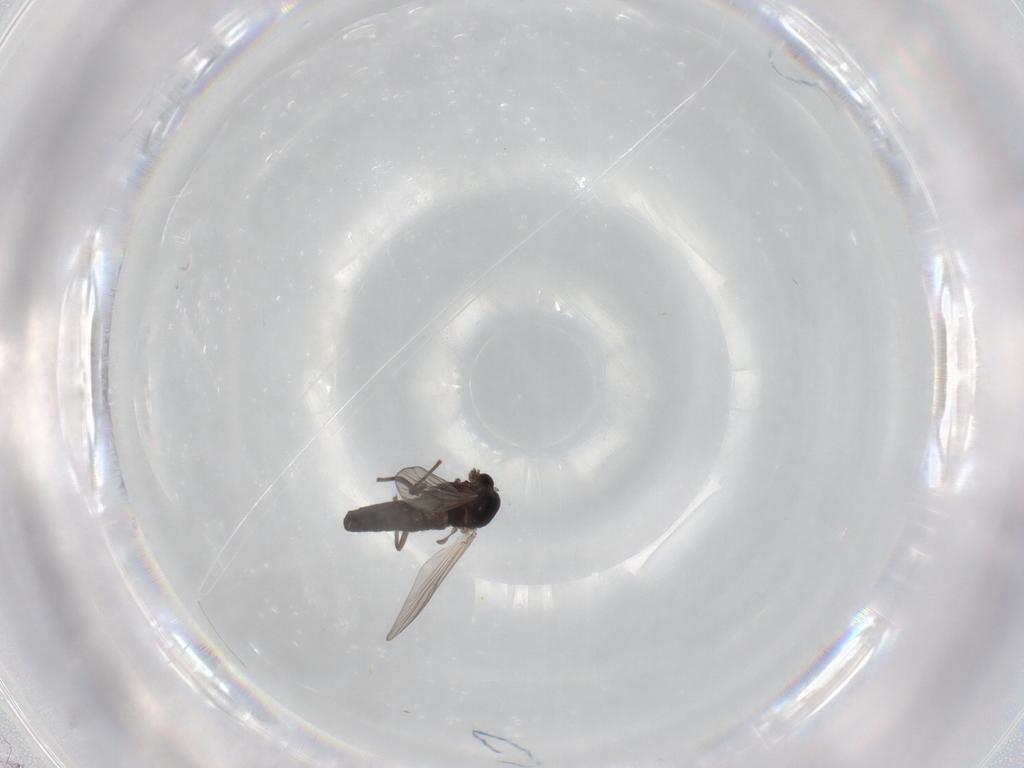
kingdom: Animalia
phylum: Arthropoda
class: Insecta
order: Diptera
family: Chironomidae
